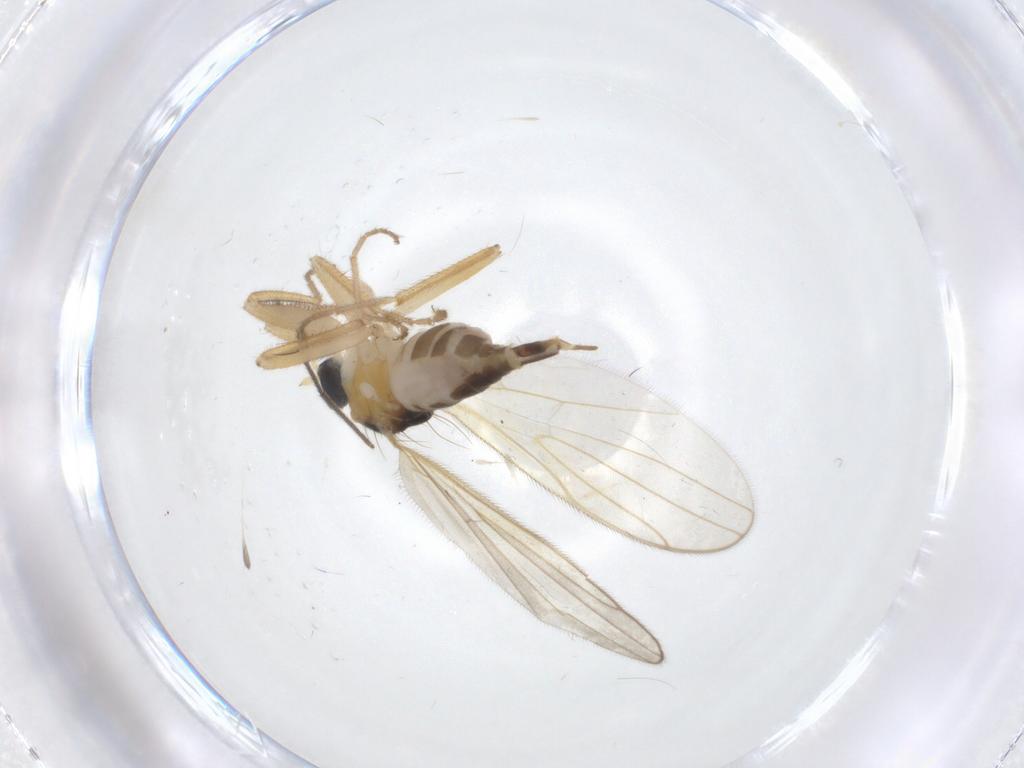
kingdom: Animalia
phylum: Arthropoda
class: Insecta
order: Diptera
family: Hybotidae
